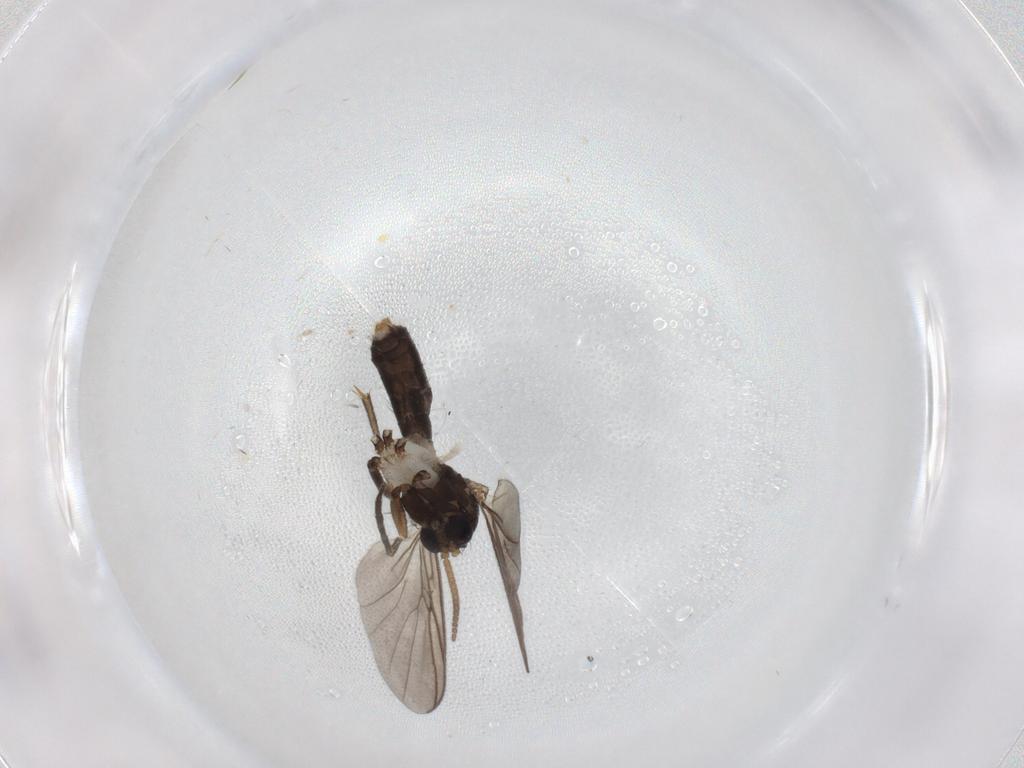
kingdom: Animalia
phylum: Arthropoda
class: Insecta
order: Diptera
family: Mycetophilidae
